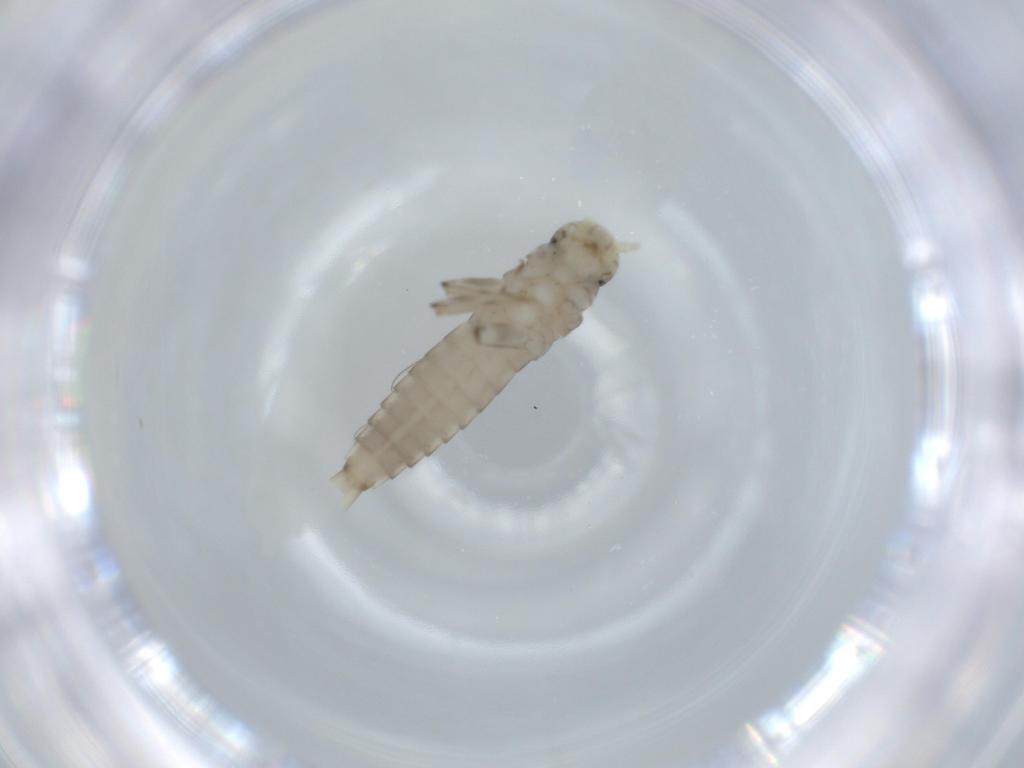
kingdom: Animalia
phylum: Arthropoda
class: Insecta
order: Ephemeroptera
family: Baetidae
